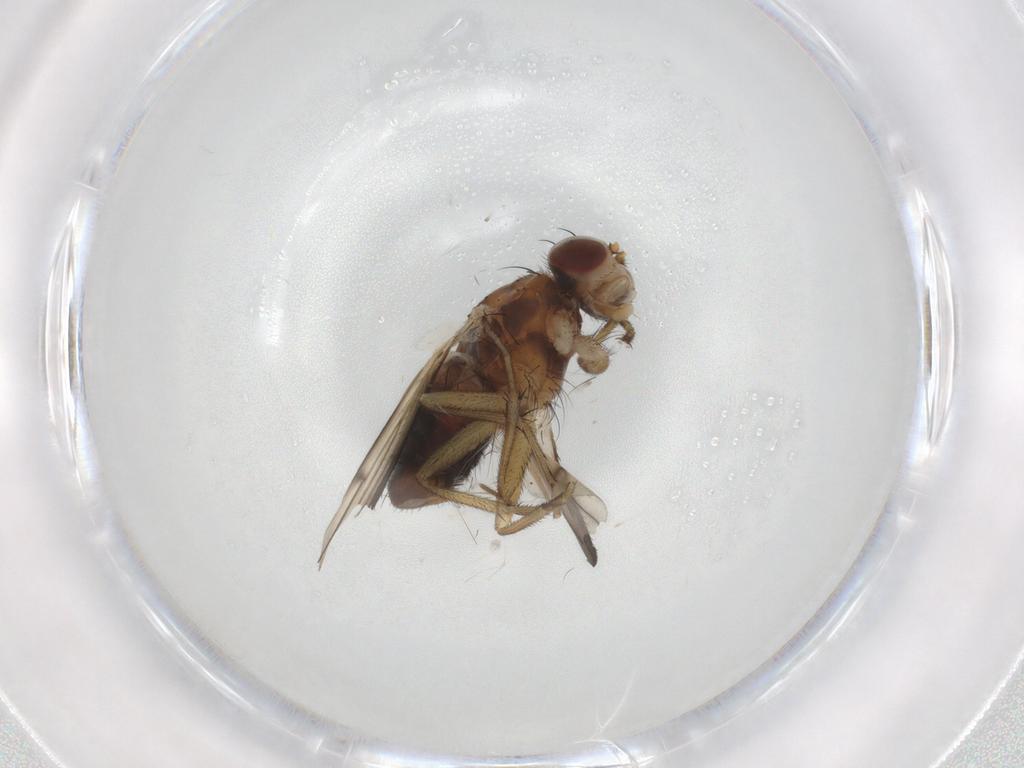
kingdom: Animalia
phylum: Arthropoda
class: Insecta
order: Diptera
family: Heleomyzidae
